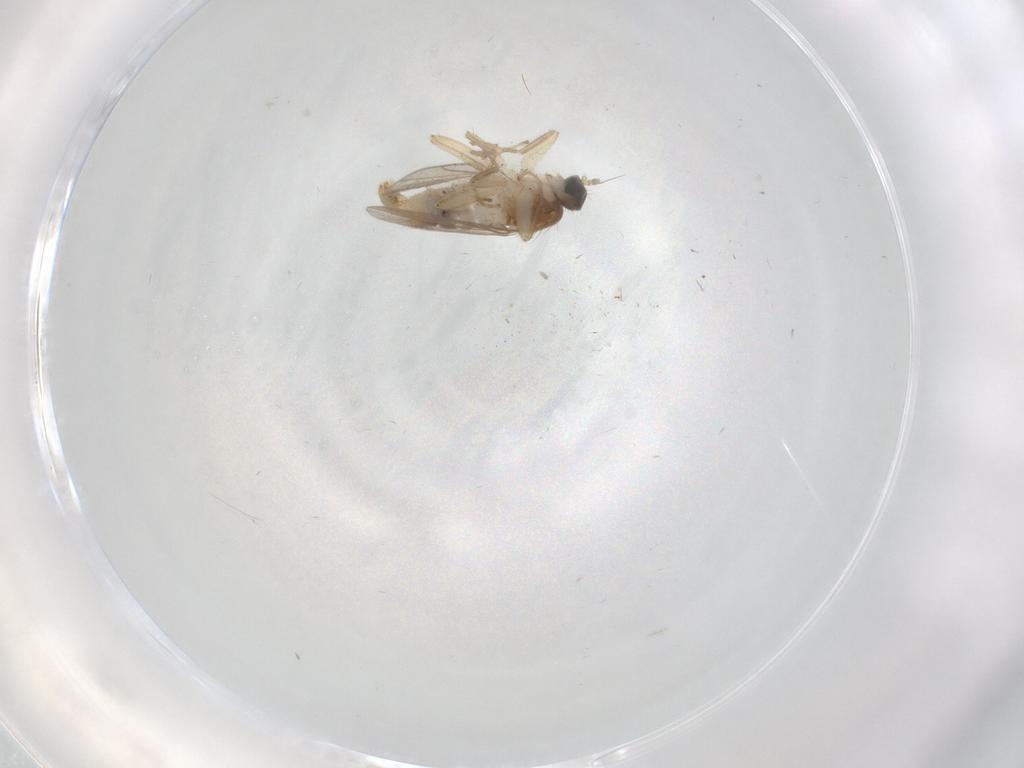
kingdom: Animalia
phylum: Arthropoda
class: Insecta
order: Diptera
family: Hybotidae
